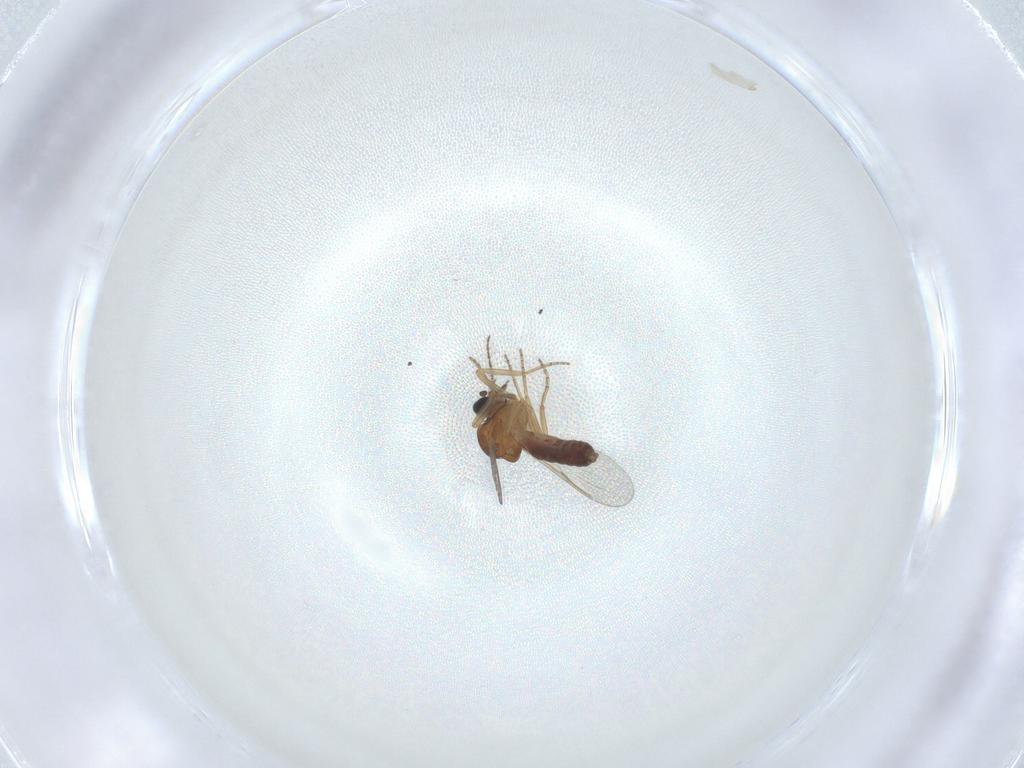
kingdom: Animalia
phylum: Arthropoda
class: Insecta
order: Diptera
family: Ceratopogonidae
